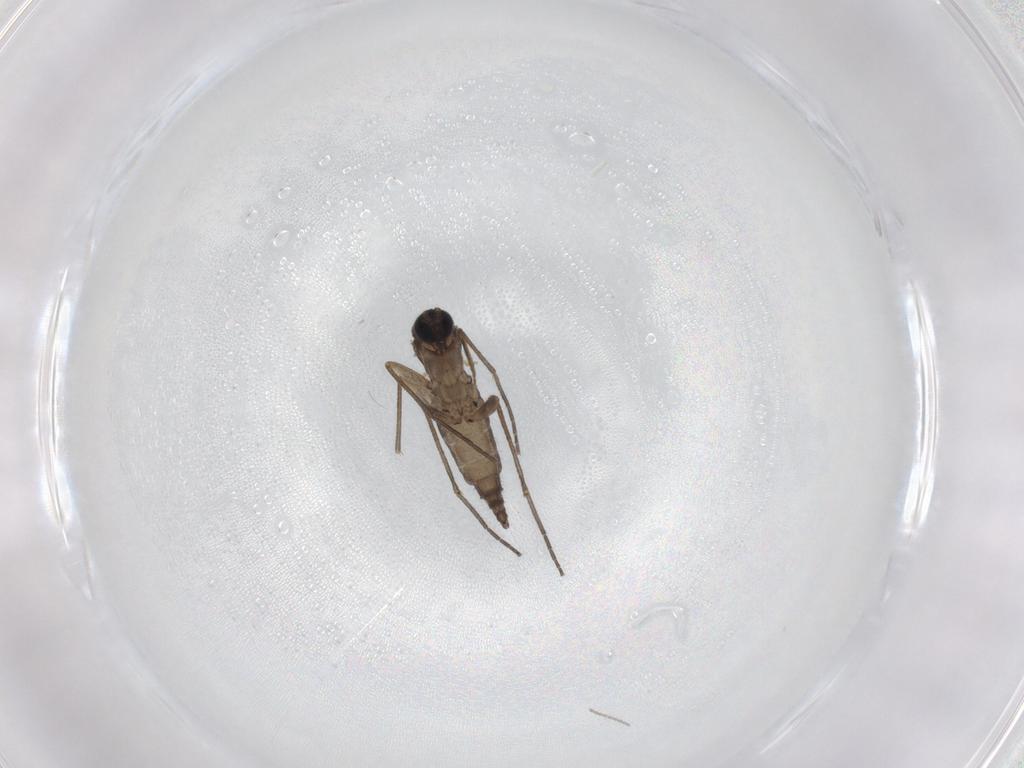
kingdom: Animalia
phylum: Arthropoda
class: Insecta
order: Diptera
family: Sciaridae
